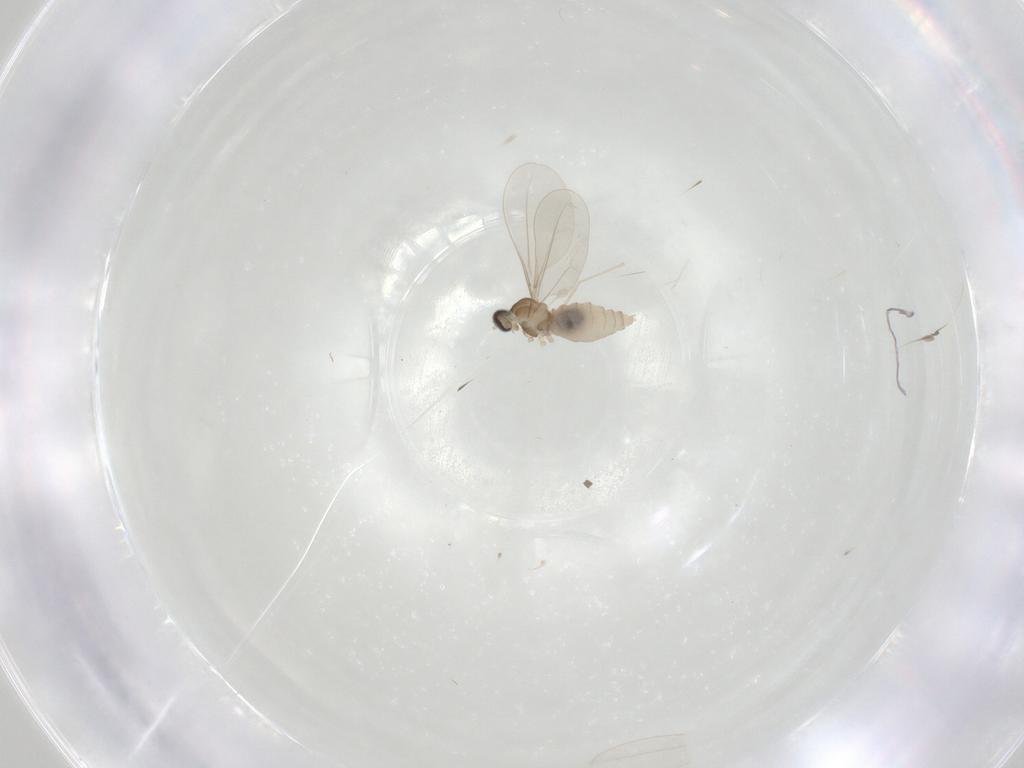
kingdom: Animalia
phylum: Arthropoda
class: Insecta
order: Diptera
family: Cecidomyiidae
